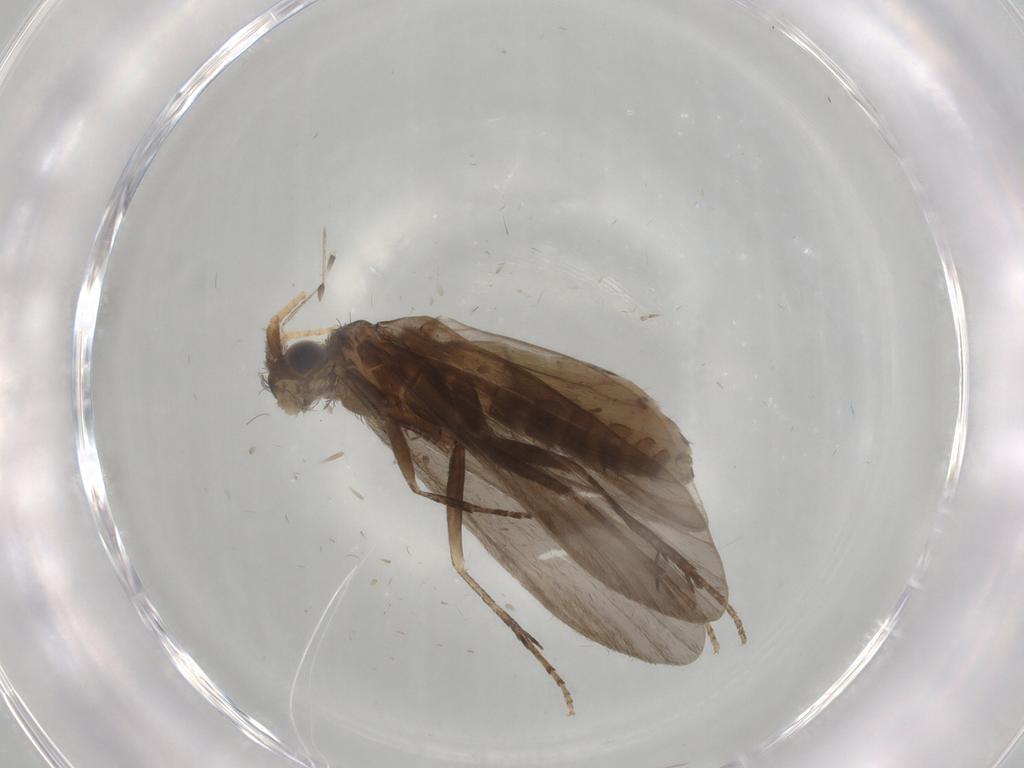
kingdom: Animalia
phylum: Arthropoda
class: Insecta
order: Trichoptera
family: Helicopsychidae
